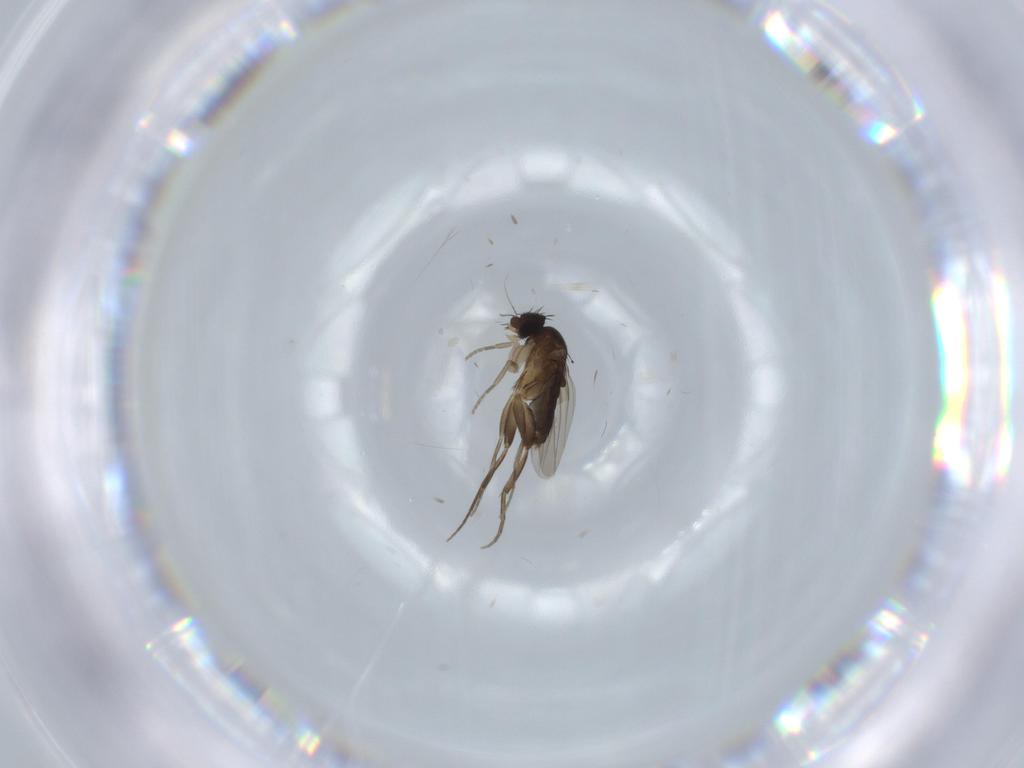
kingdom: Animalia
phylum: Arthropoda
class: Insecta
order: Diptera
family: Phoridae
